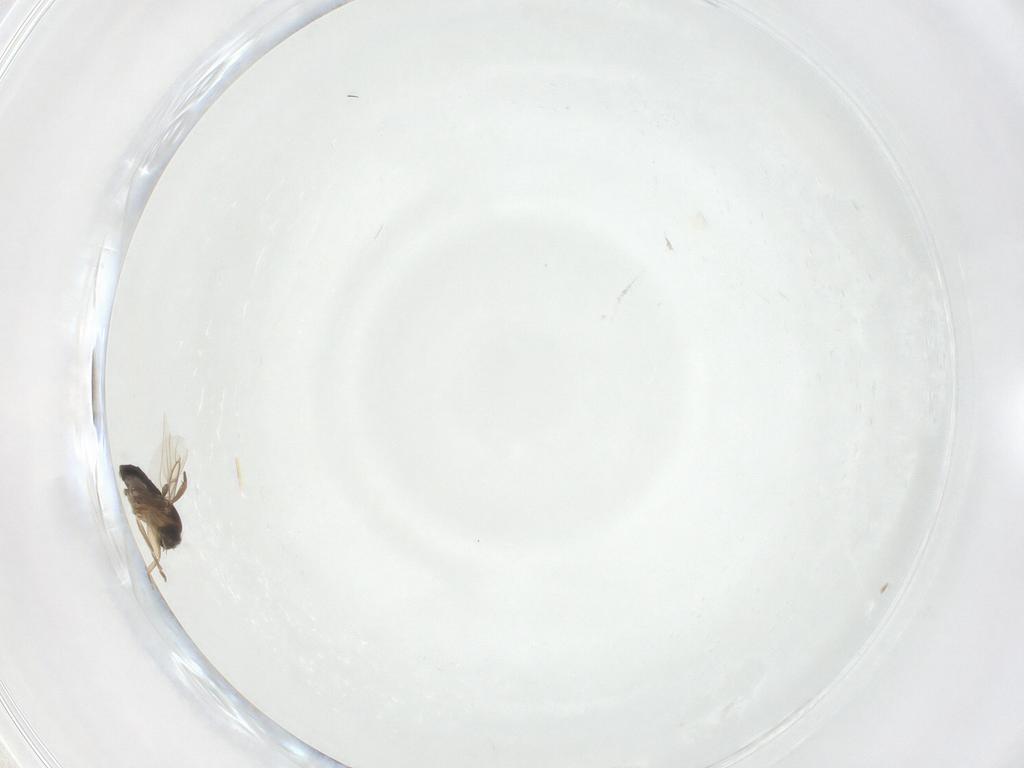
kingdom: Animalia
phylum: Arthropoda
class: Insecta
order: Diptera
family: Phoridae
